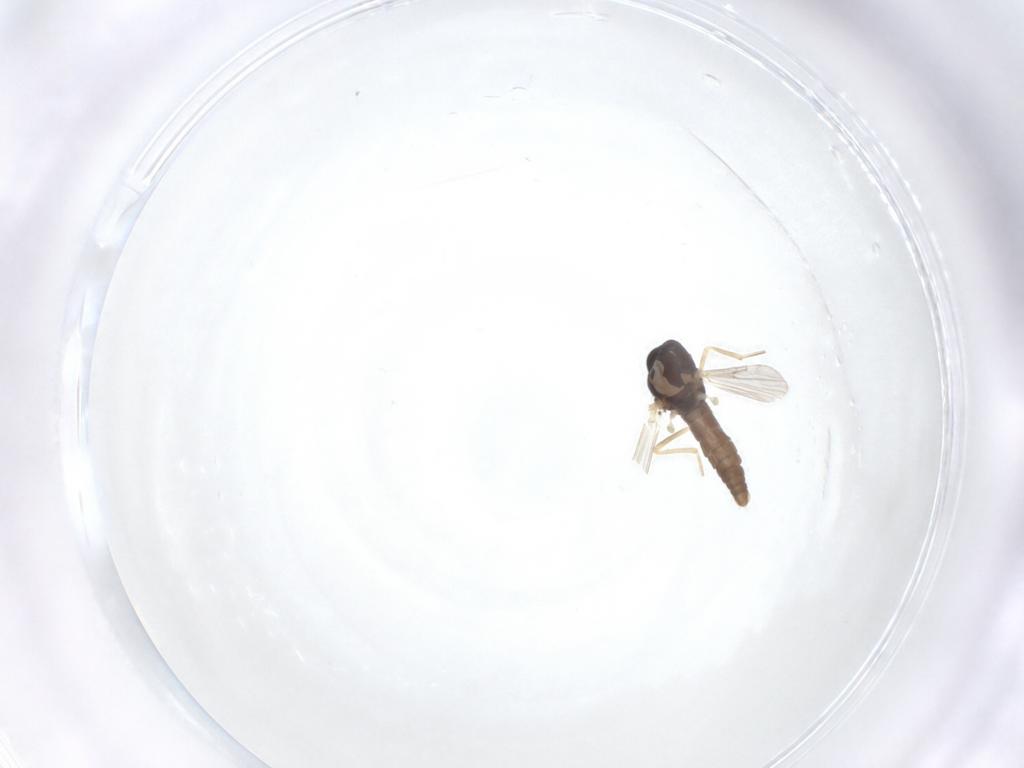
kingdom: Animalia
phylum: Arthropoda
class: Insecta
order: Diptera
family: Ceratopogonidae
